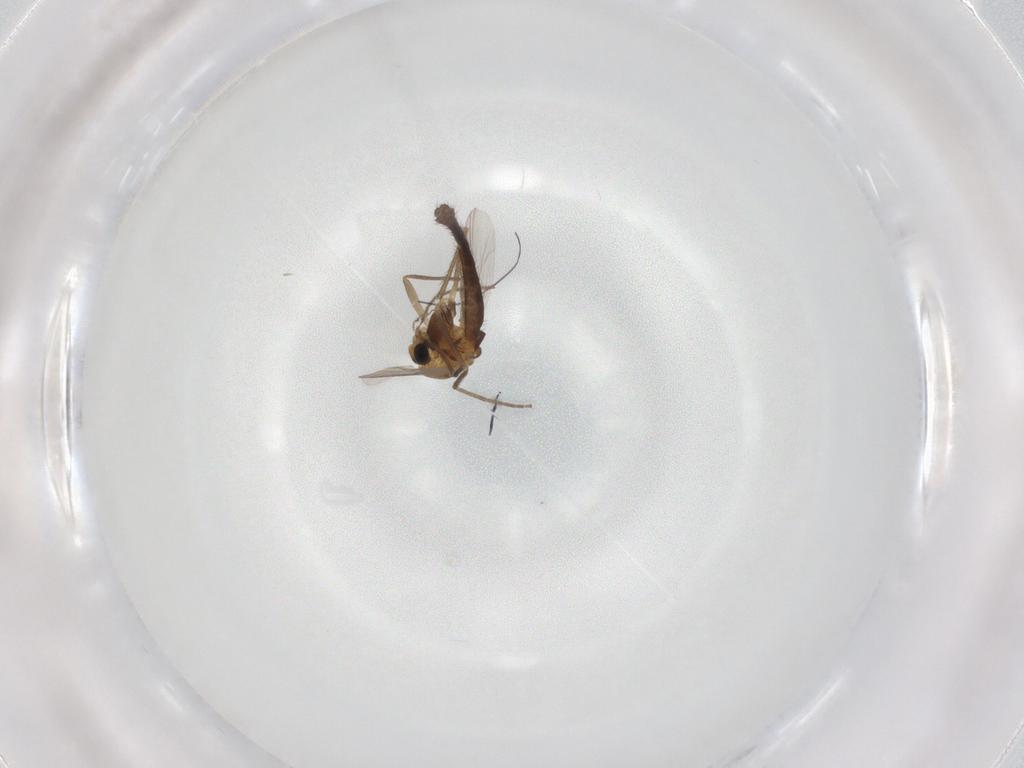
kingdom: Animalia
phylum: Arthropoda
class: Insecta
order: Diptera
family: Chironomidae
